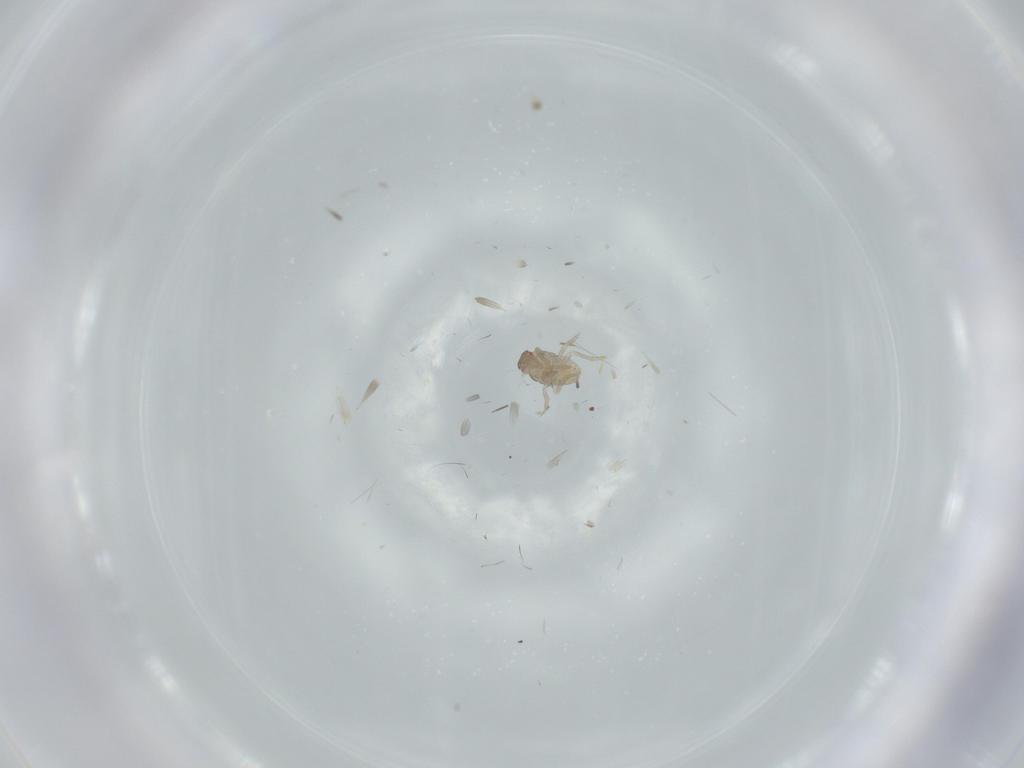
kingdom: Animalia
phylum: Arthropoda
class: Insecta
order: Coleoptera
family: Chrysomelidae
